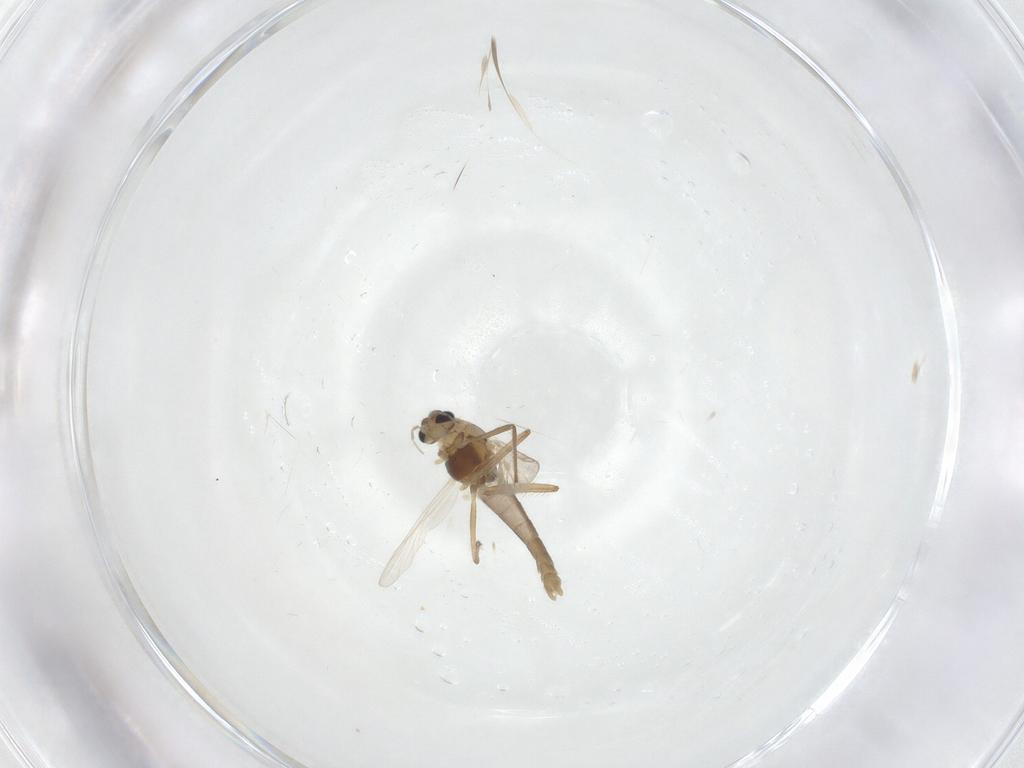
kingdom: Animalia
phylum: Arthropoda
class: Insecta
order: Diptera
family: Chironomidae
